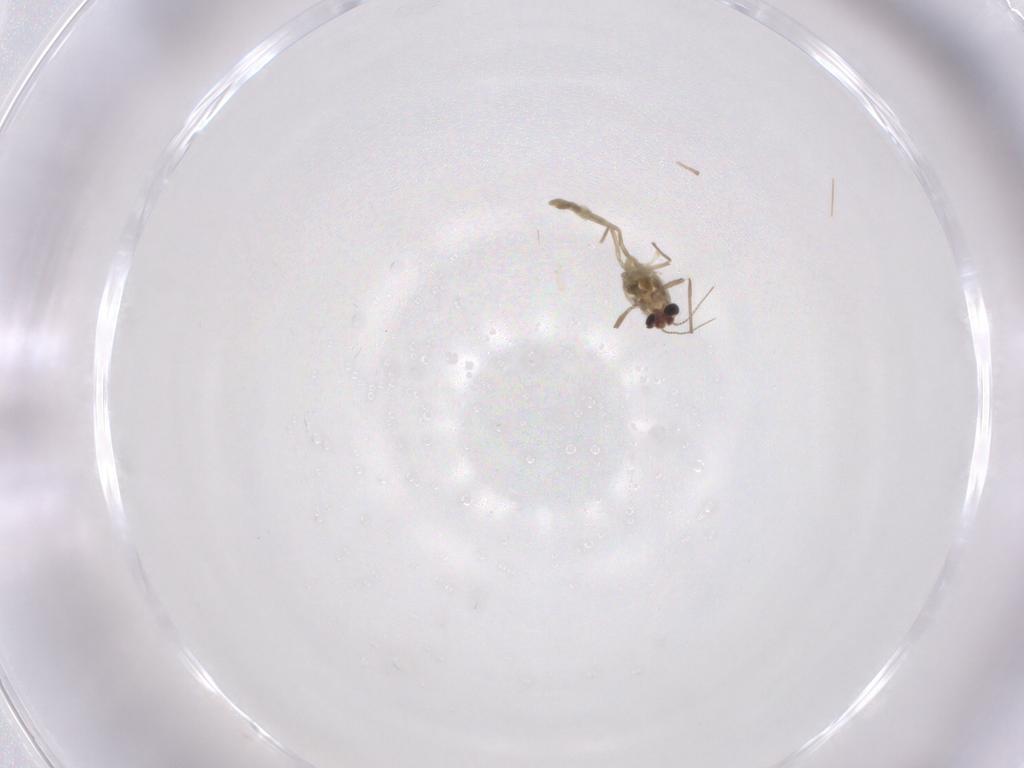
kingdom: Animalia
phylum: Arthropoda
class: Insecta
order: Diptera
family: Chironomidae
